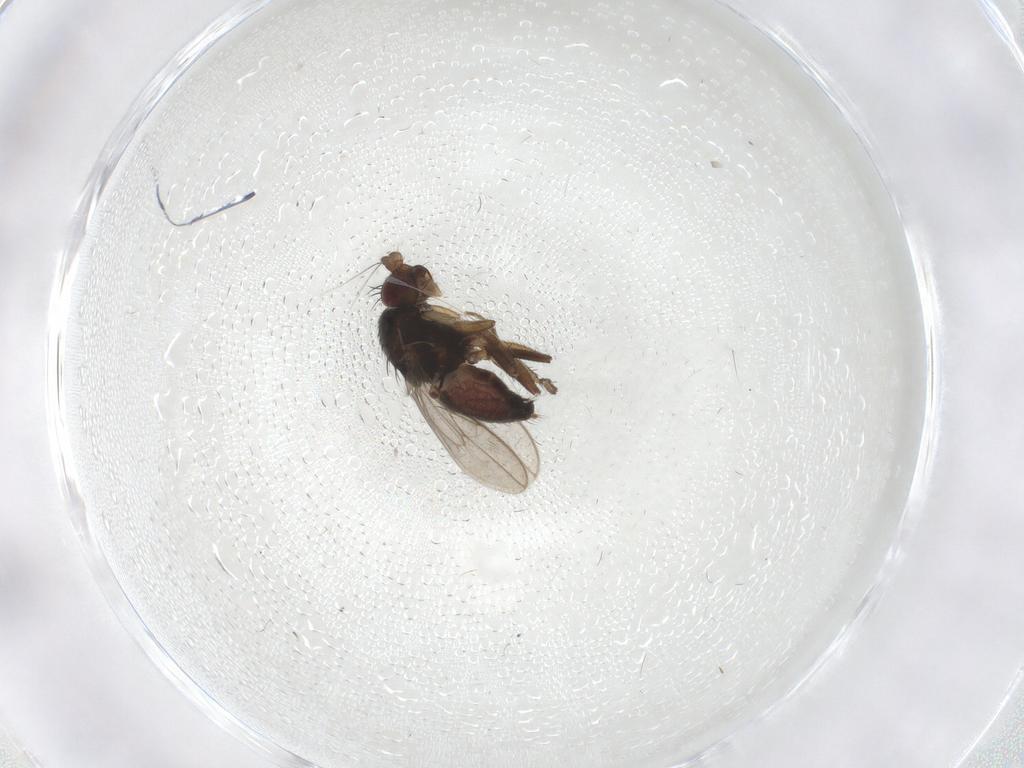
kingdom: Animalia
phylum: Arthropoda
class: Insecta
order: Diptera
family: Sphaeroceridae
